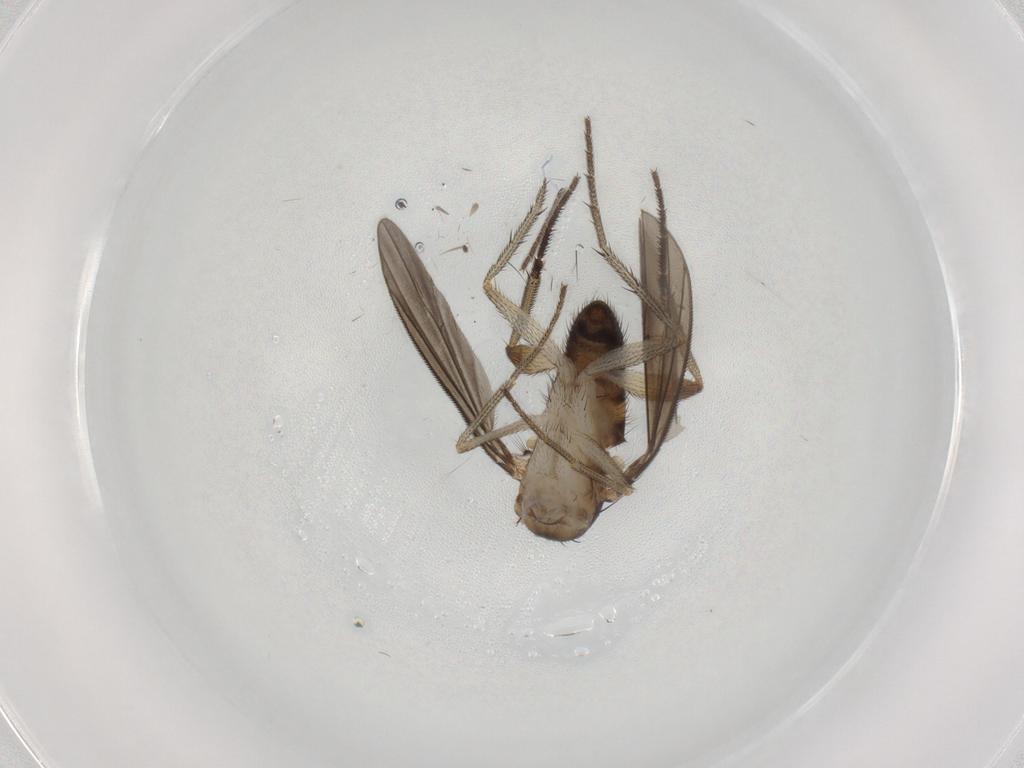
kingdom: Animalia
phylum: Arthropoda
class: Insecta
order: Diptera
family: Dolichopodidae
